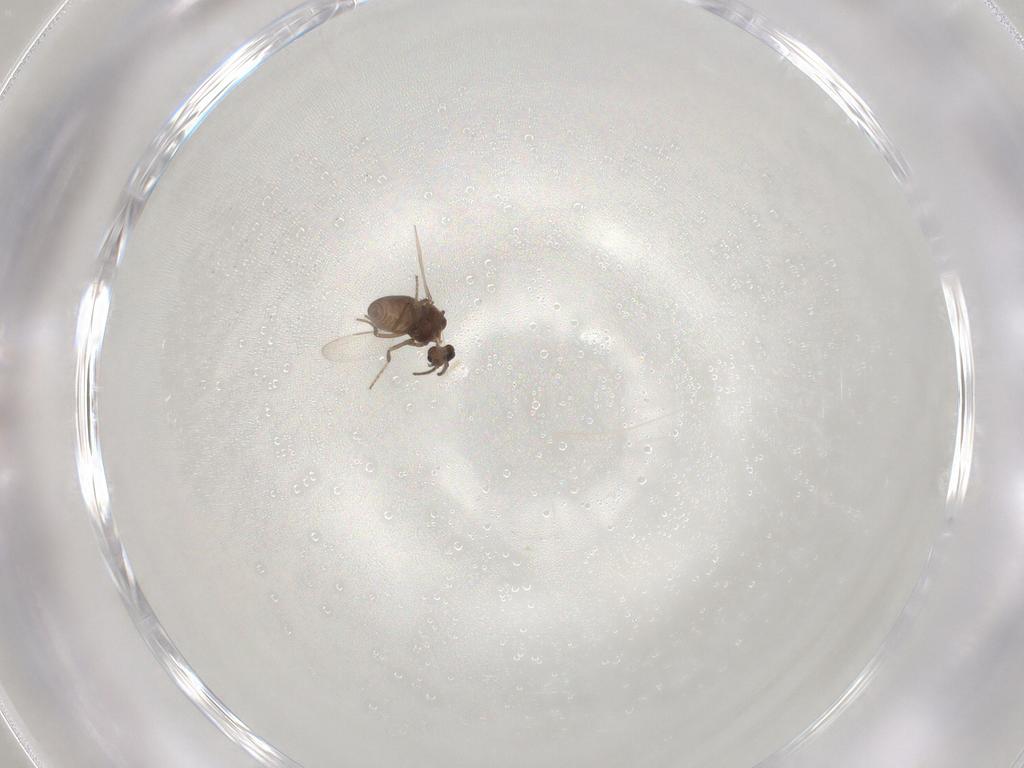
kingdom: Animalia
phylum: Arthropoda
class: Insecta
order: Diptera
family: Ceratopogonidae
